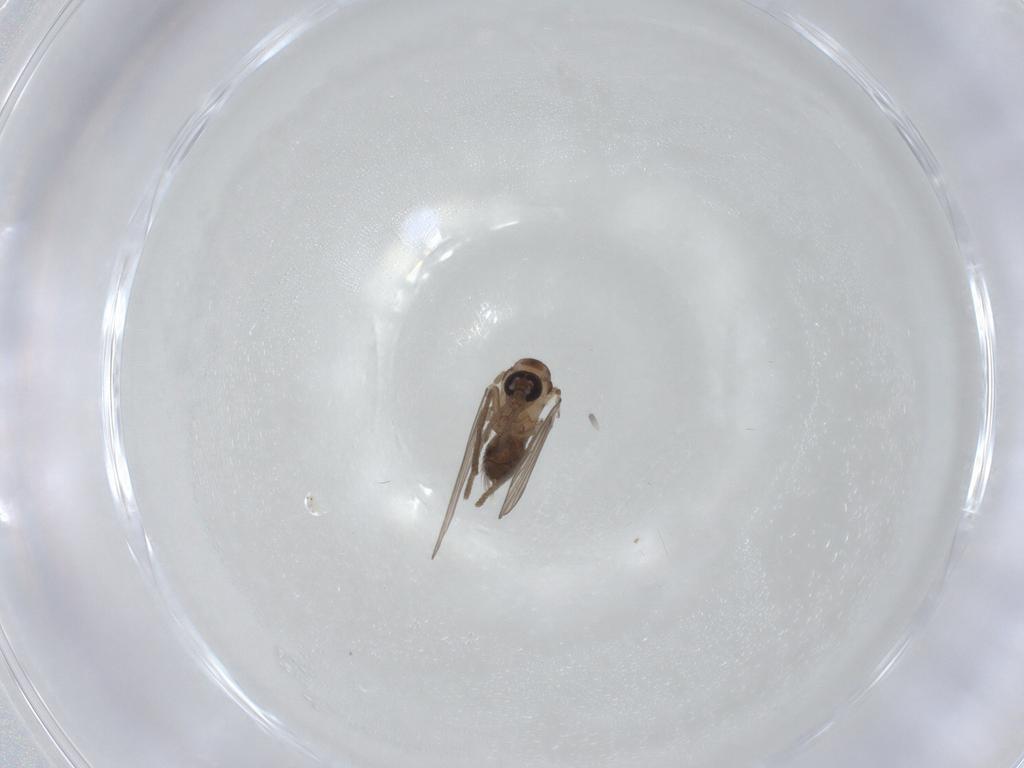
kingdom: Animalia
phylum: Arthropoda
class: Insecta
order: Diptera
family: Psychodidae
